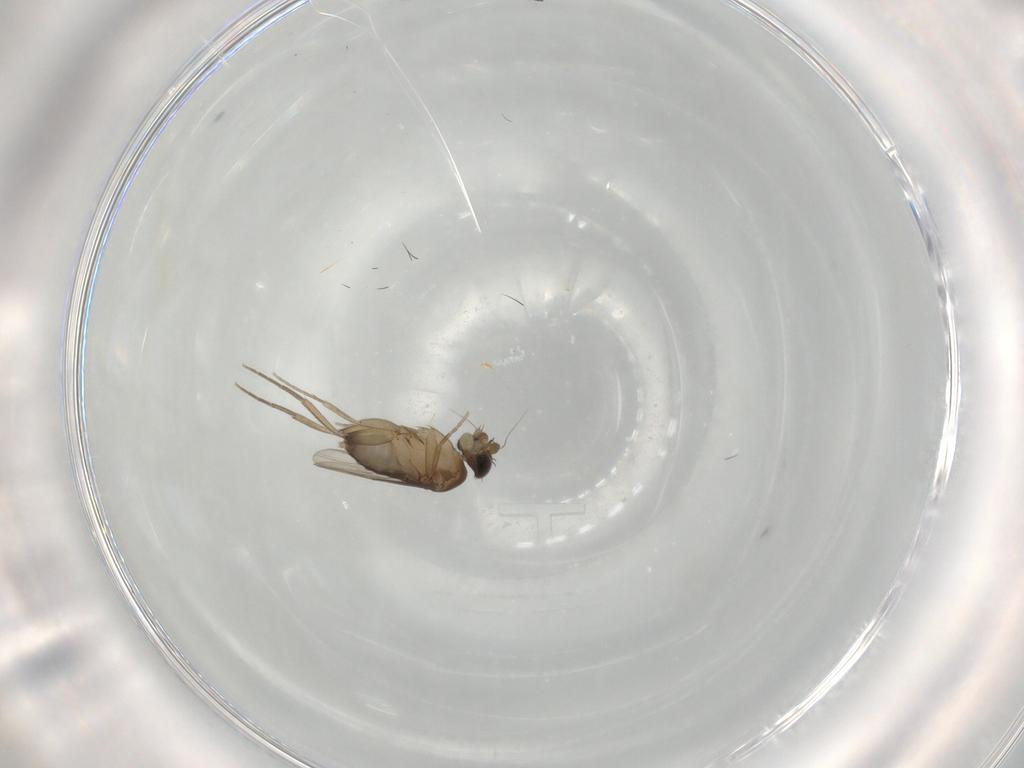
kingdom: Animalia
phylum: Arthropoda
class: Insecta
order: Diptera
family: Phoridae
